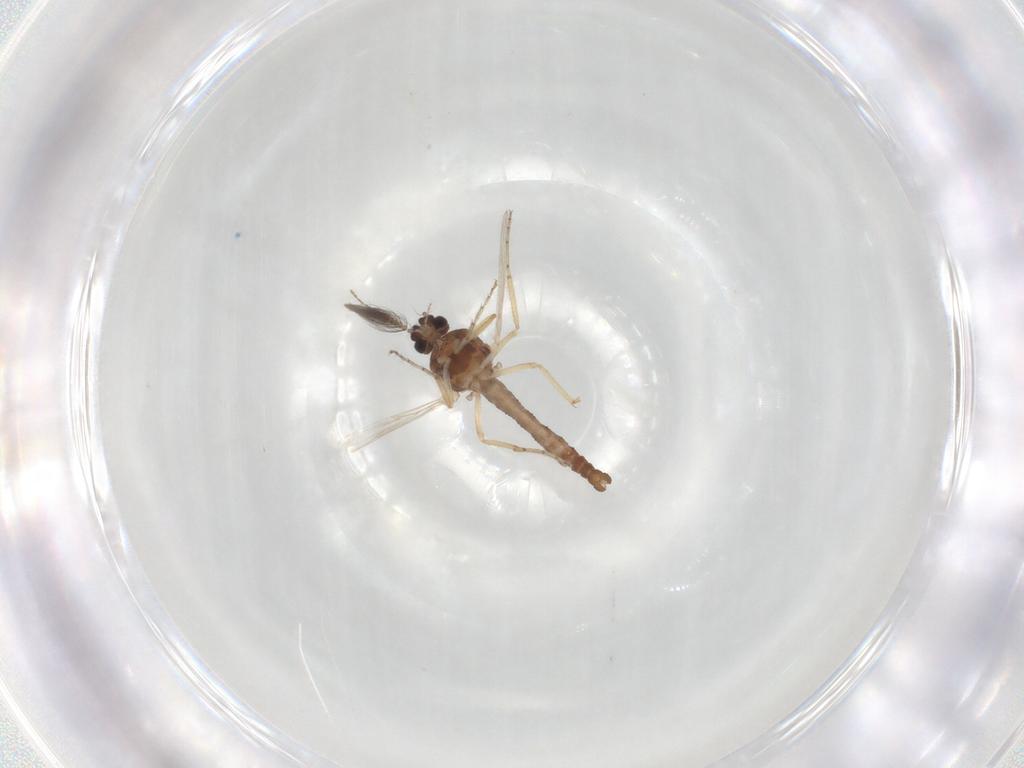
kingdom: Animalia
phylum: Arthropoda
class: Insecta
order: Diptera
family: Ceratopogonidae
